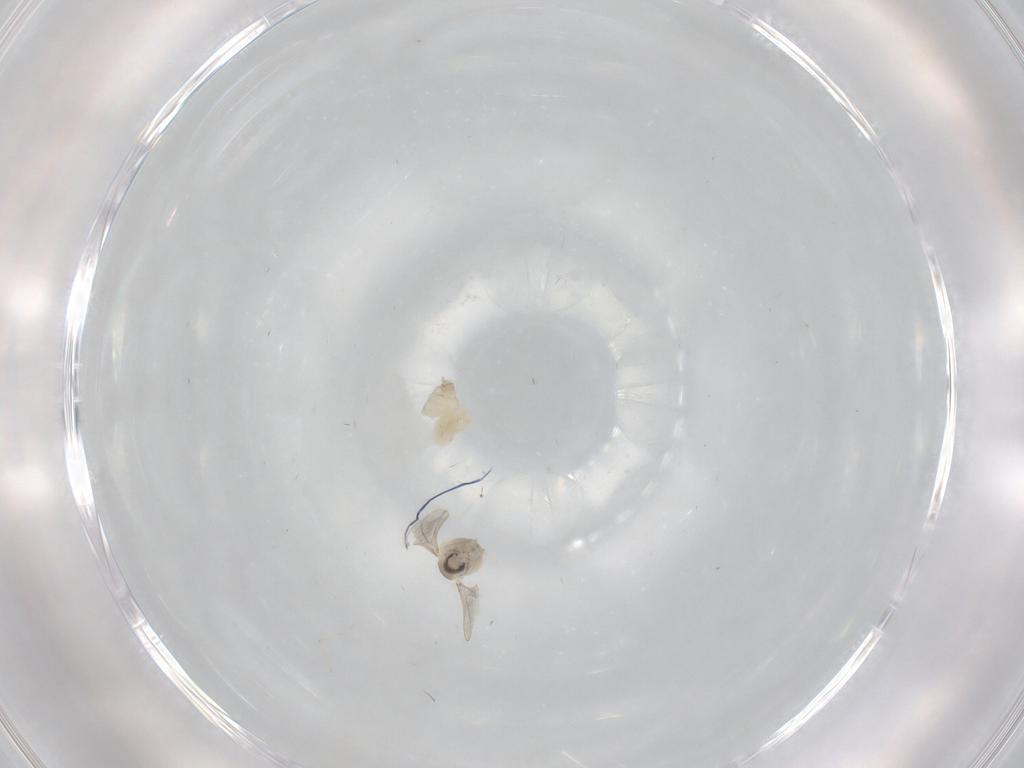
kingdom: Animalia
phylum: Arthropoda
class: Insecta
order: Diptera
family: Cecidomyiidae
